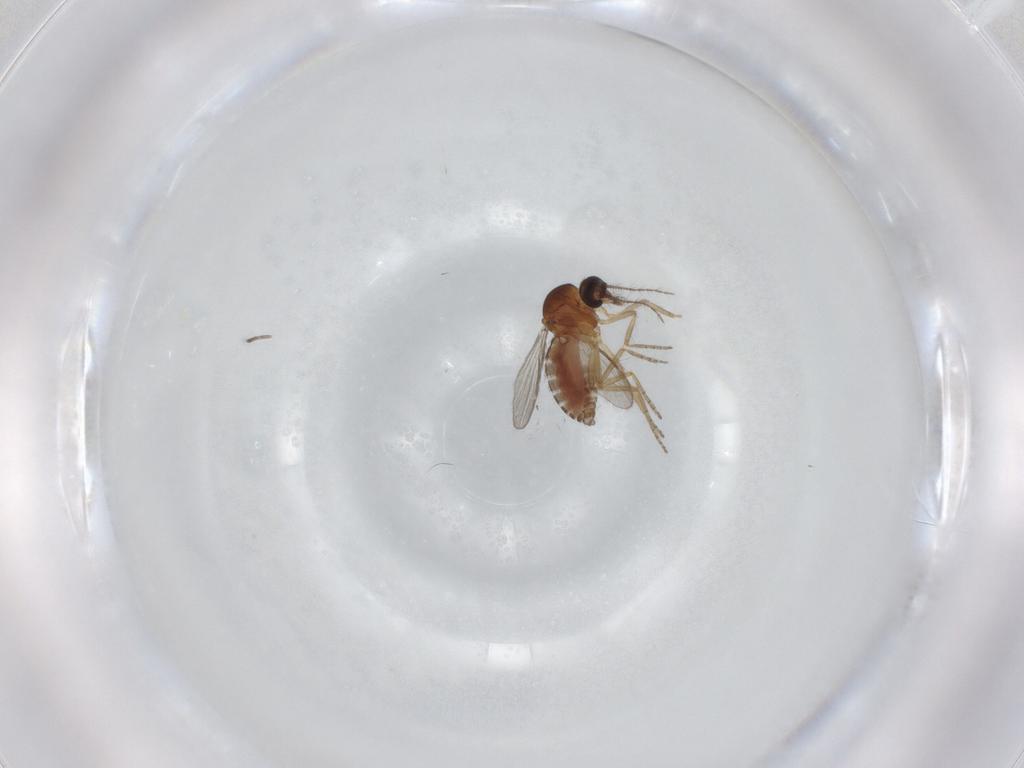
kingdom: Animalia
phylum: Arthropoda
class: Insecta
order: Diptera
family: Ceratopogonidae
